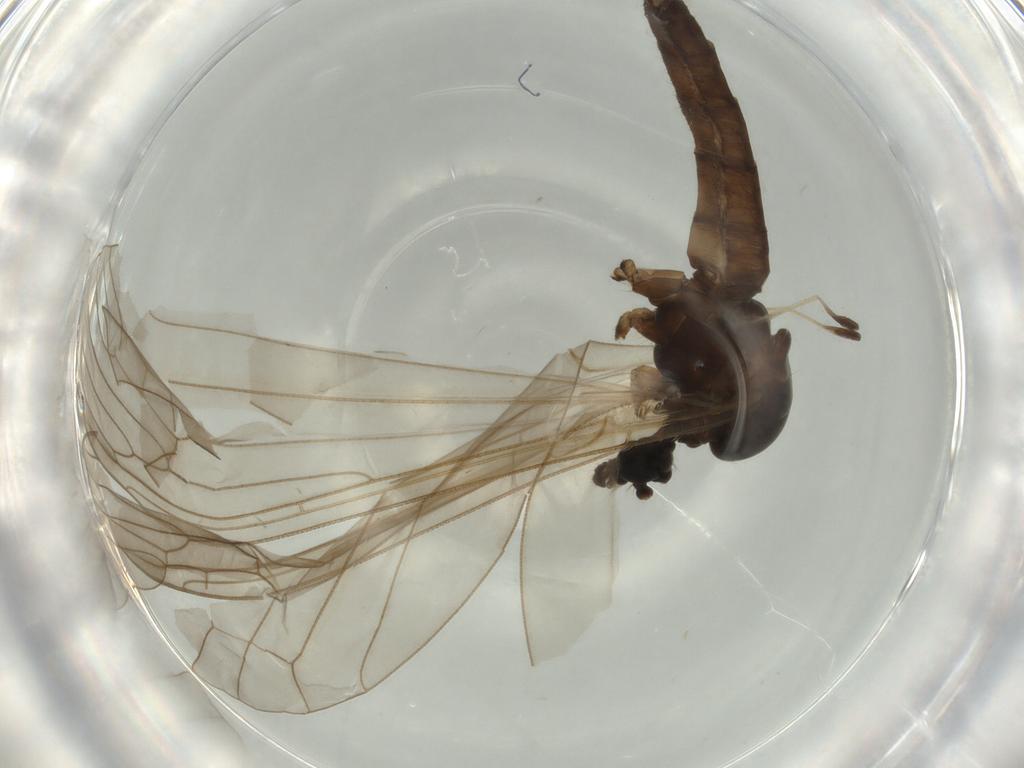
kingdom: Animalia
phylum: Arthropoda
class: Insecta
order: Diptera
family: Trichoceridae
